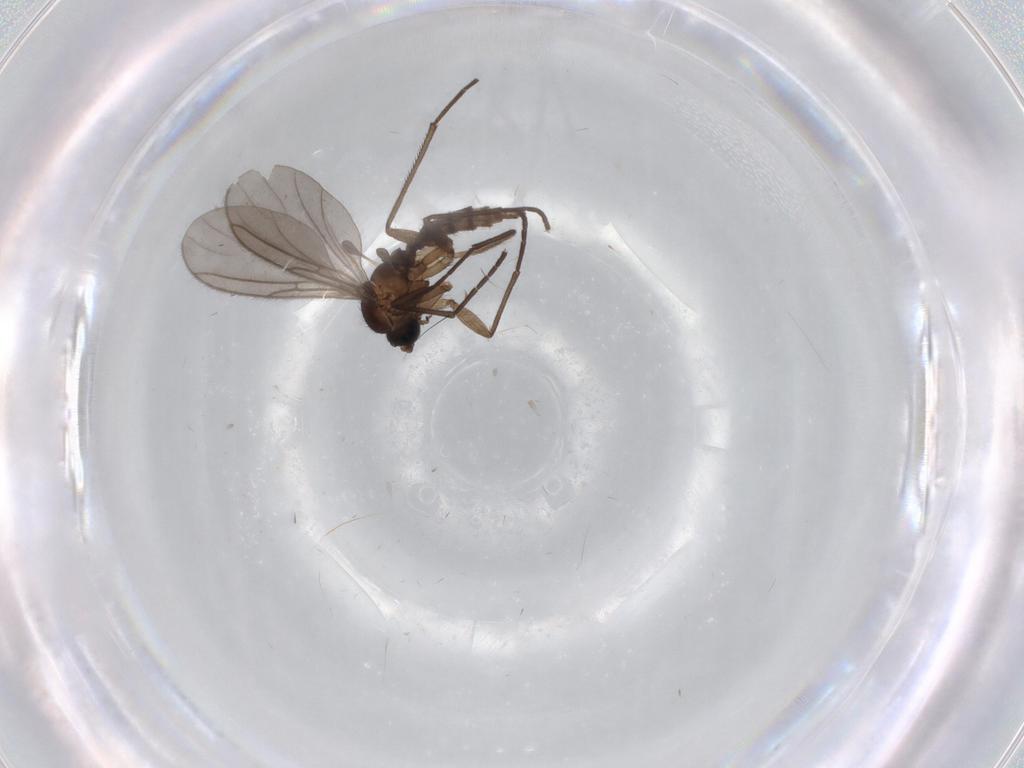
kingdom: Animalia
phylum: Arthropoda
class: Insecta
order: Diptera
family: Sciaridae
